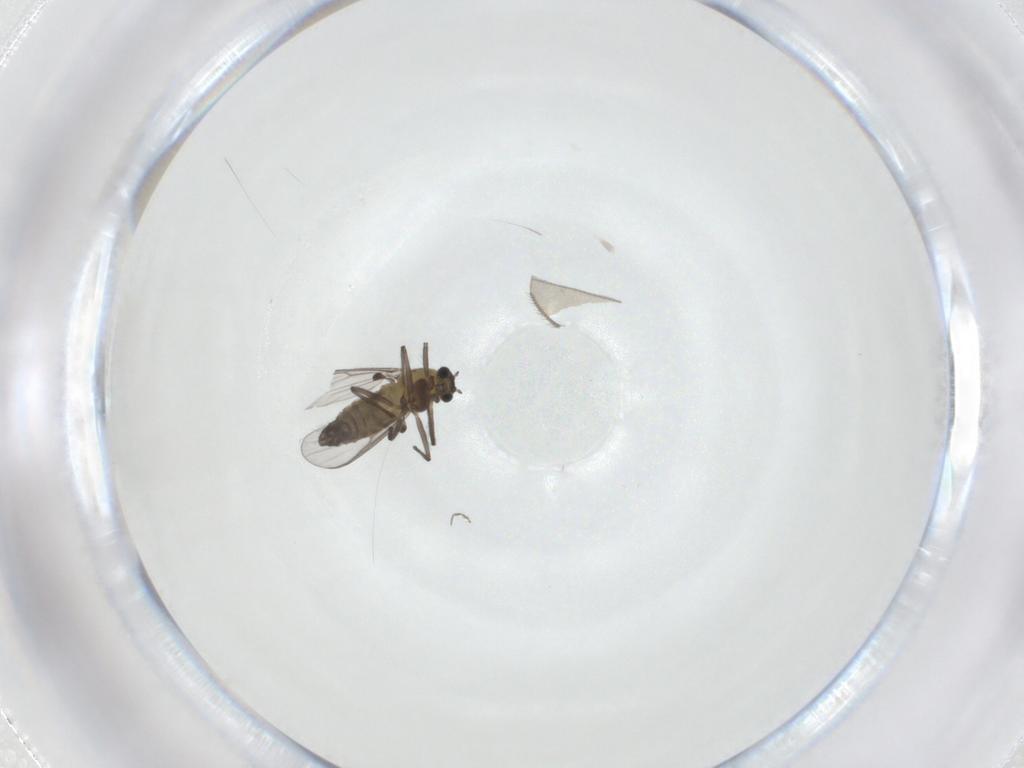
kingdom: Animalia
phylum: Arthropoda
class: Insecta
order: Diptera
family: Chironomidae
